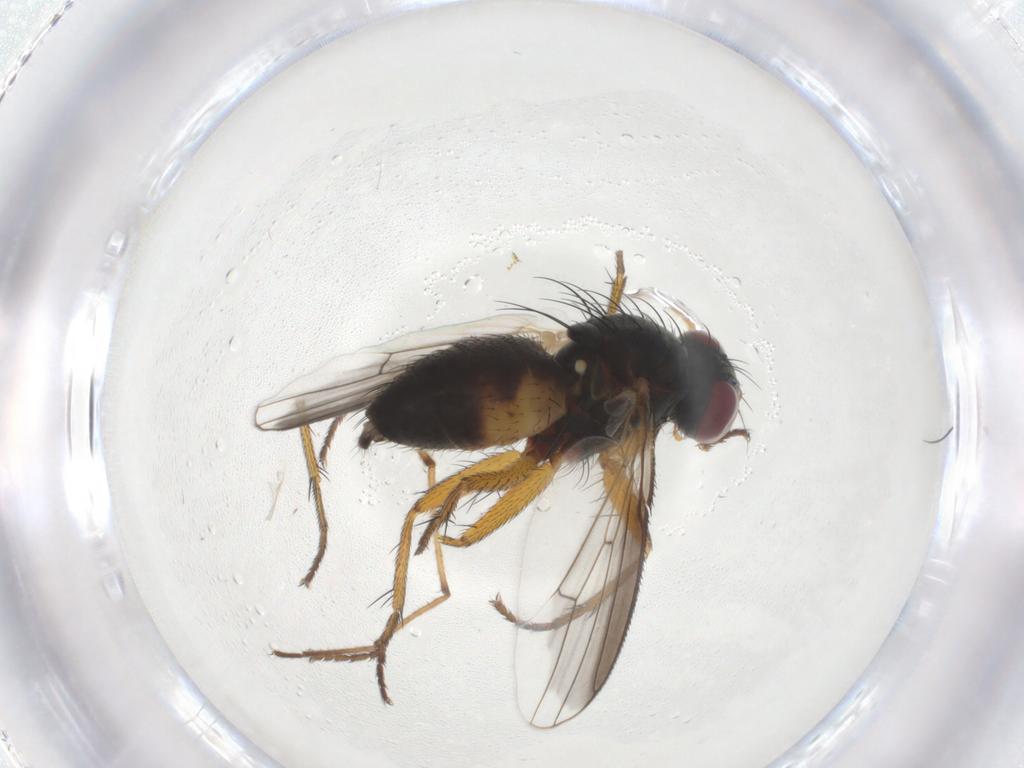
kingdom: Animalia
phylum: Arthropoda
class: Insecta
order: Diptera
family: Muscidae
